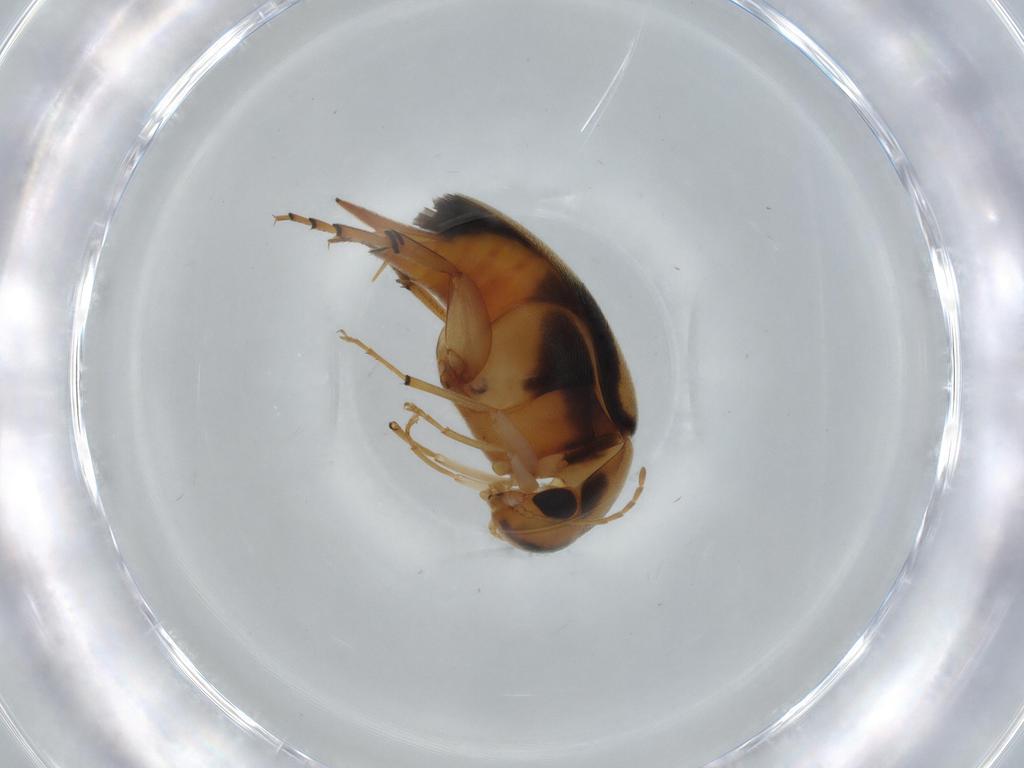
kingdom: Animalia
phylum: Arthropoda
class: Insecta
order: Coleoptera
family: Mordellidae
